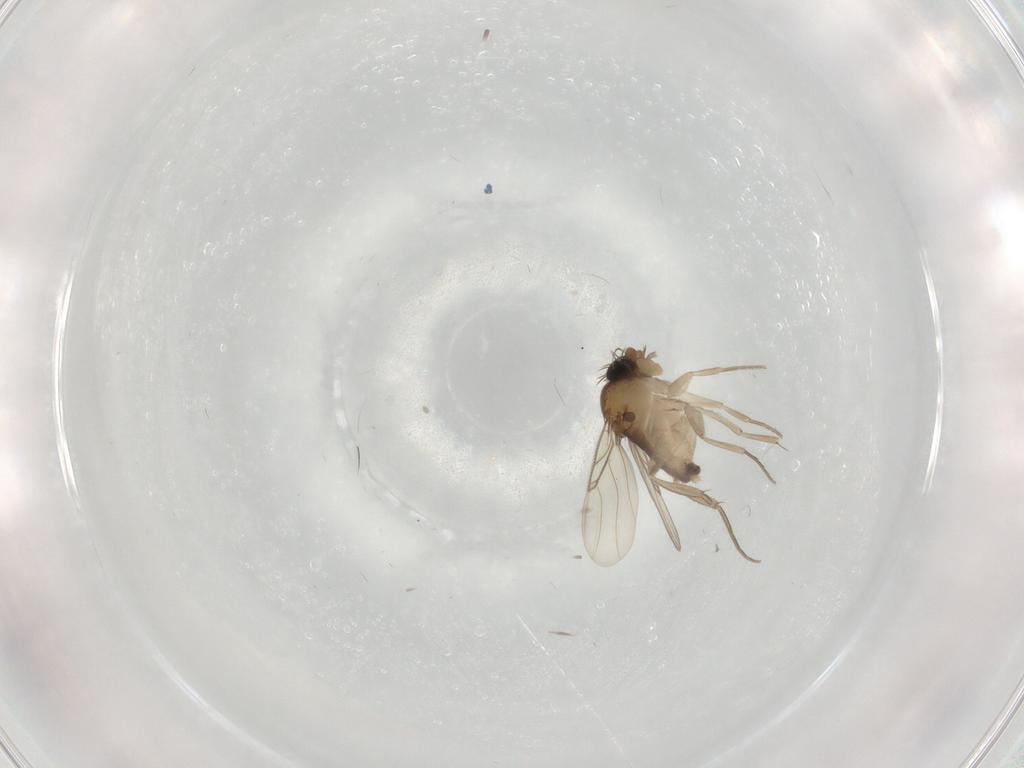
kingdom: Animalia
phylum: Arthropoda
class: Insecta
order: Diptera
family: Phoridae
